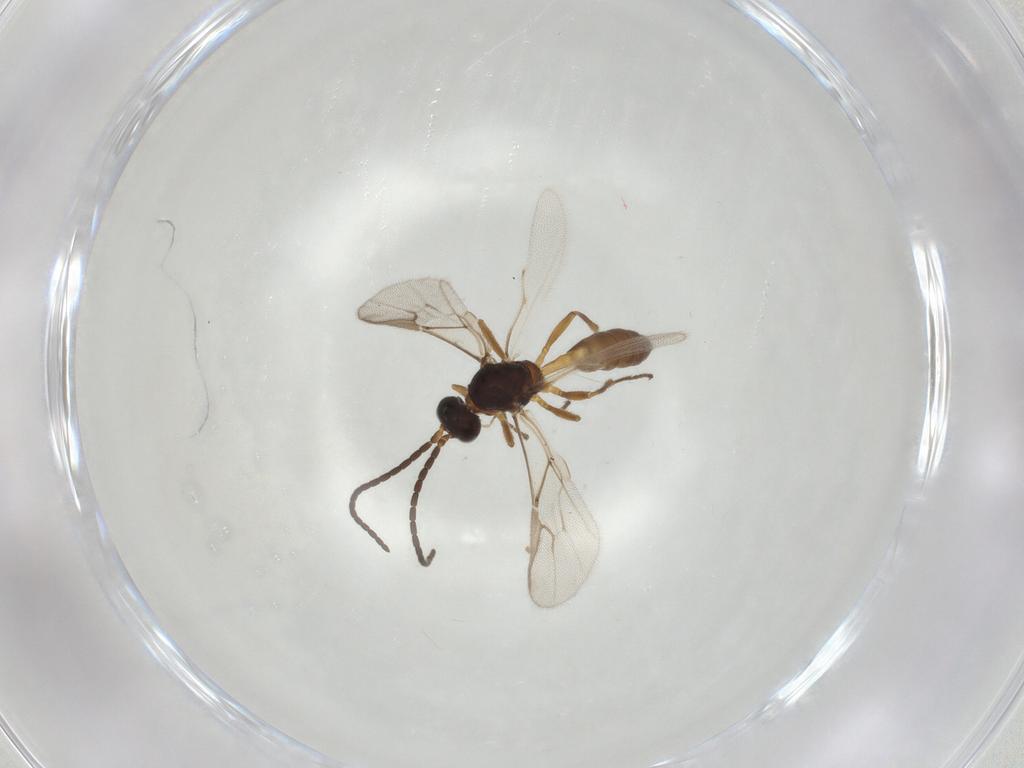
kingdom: Animalia
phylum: Arthropoda
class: Insecta
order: Hymenoptera
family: Braconidae
